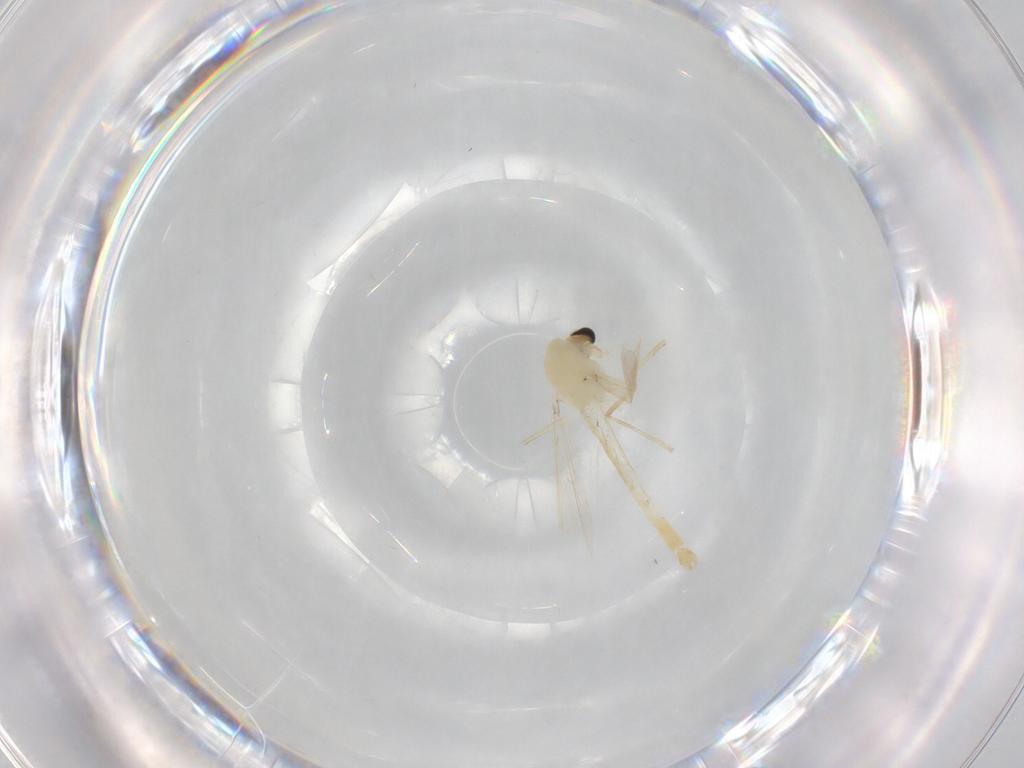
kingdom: Animalia
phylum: Arthropoda
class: Insecta
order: Diptera
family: Chironomidae
